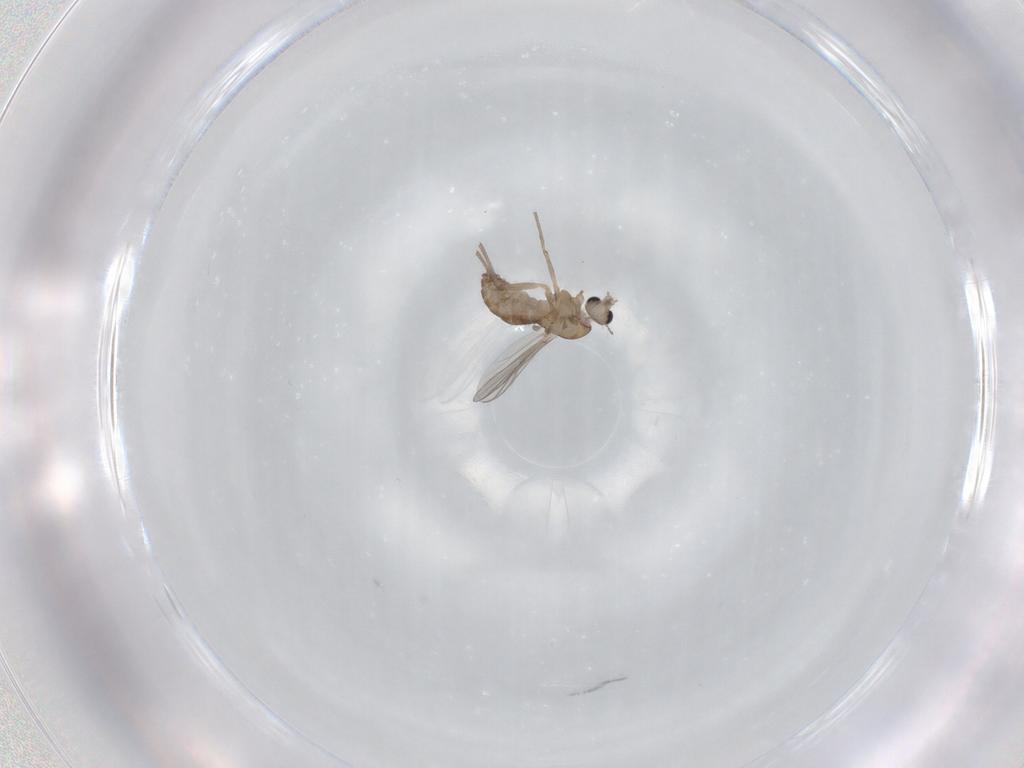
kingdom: Animalia
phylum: Arthropoda
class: Insecta
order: Diptera
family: Chironomidae
